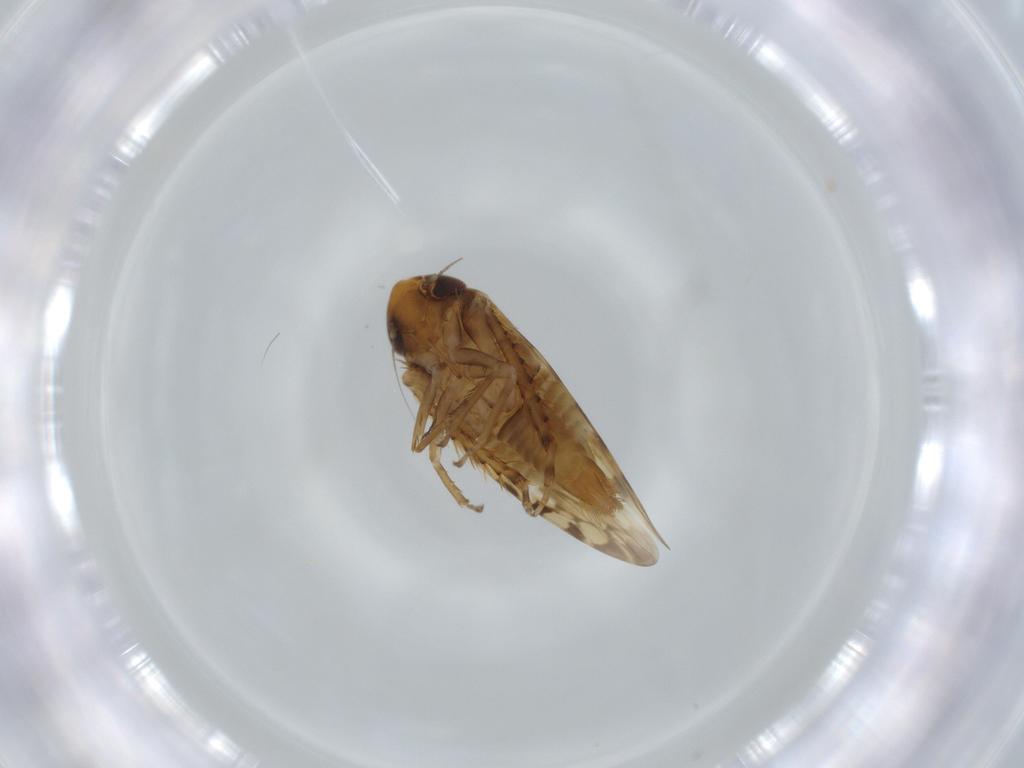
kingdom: Animalia
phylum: Arthropoda
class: Insecta
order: Hemiptera
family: Cicadellidae
